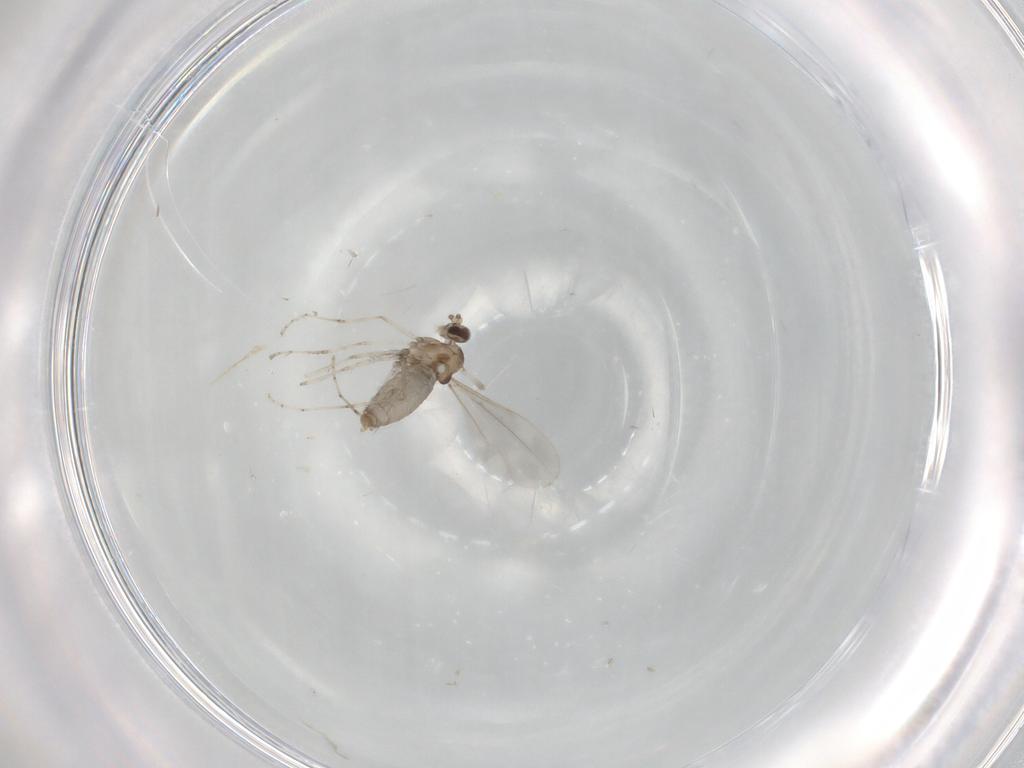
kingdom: Animalia
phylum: Arthropoda
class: Insecta
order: Diptera
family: Cecidomyiidae
